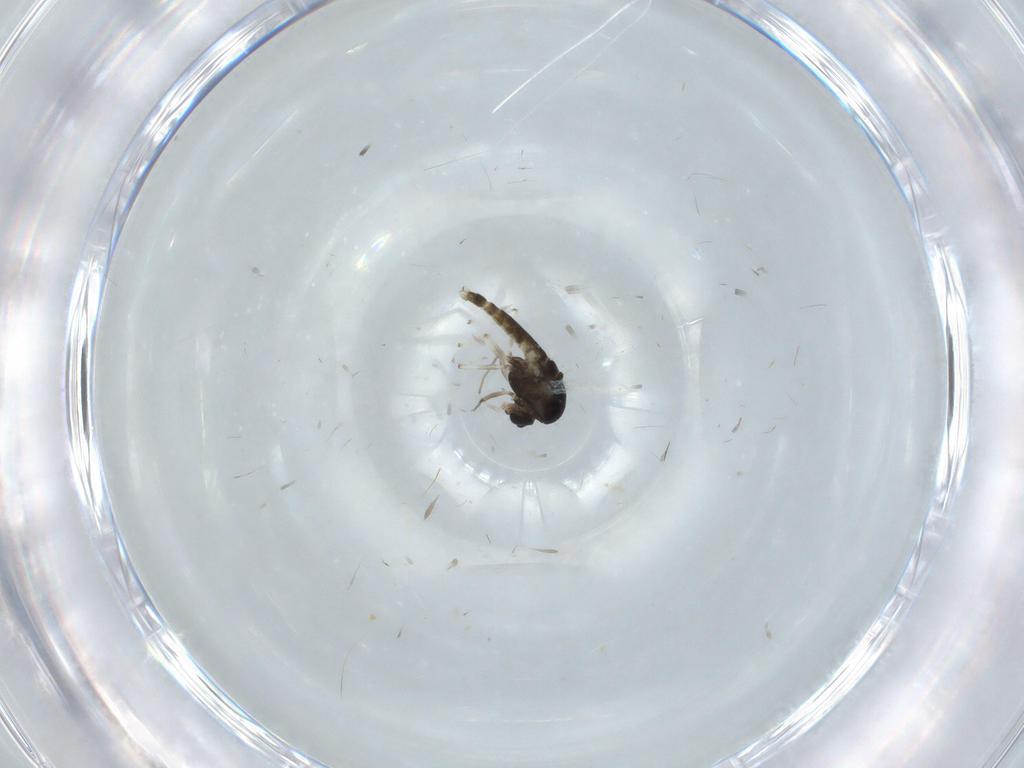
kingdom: Animalia
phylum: Arthropoda
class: Insecta
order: Diptera
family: Chironomidae
